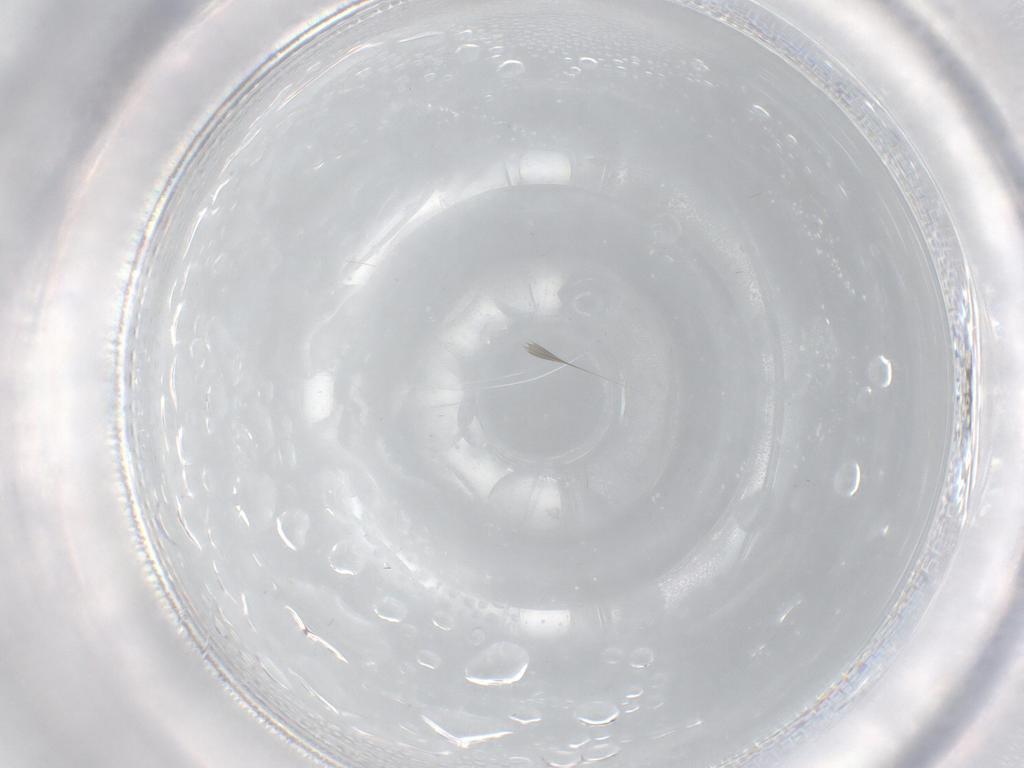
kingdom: Animalia
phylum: Arthropoda
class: Insecta
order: Hymenoptera
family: Formicidae
